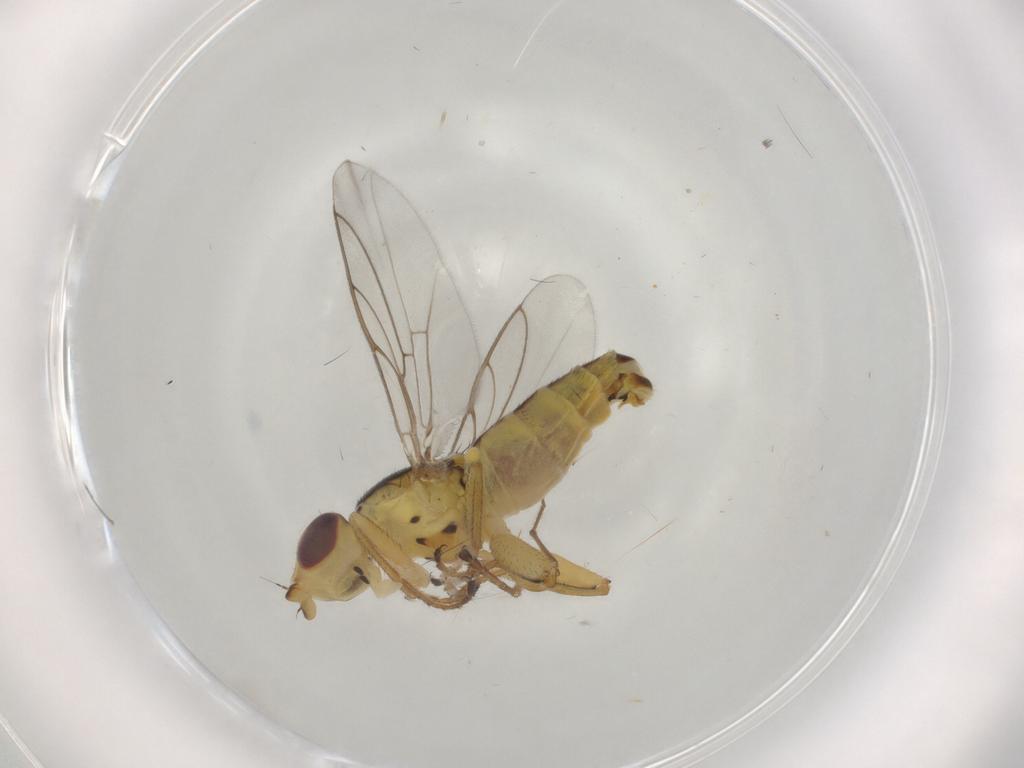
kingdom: Animalia
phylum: Arthropoda
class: Insecta
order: Diptera
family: Chloropidae
